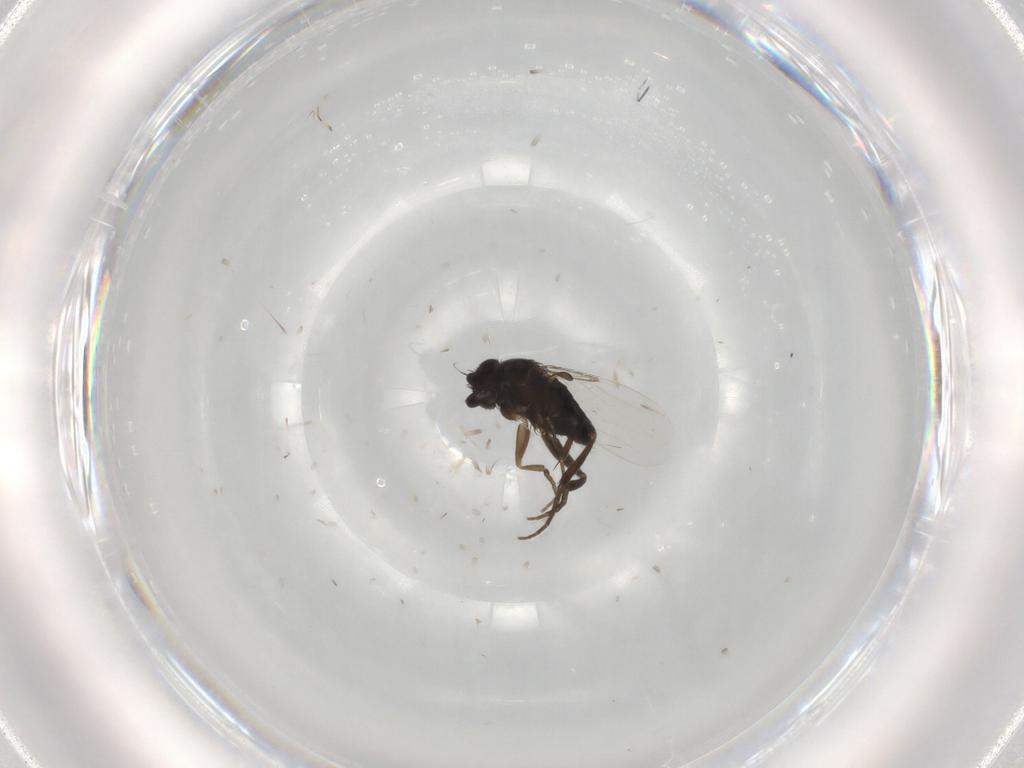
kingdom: Animalia
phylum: Arthropoda
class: Insecta
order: Diptera
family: Phoridae
